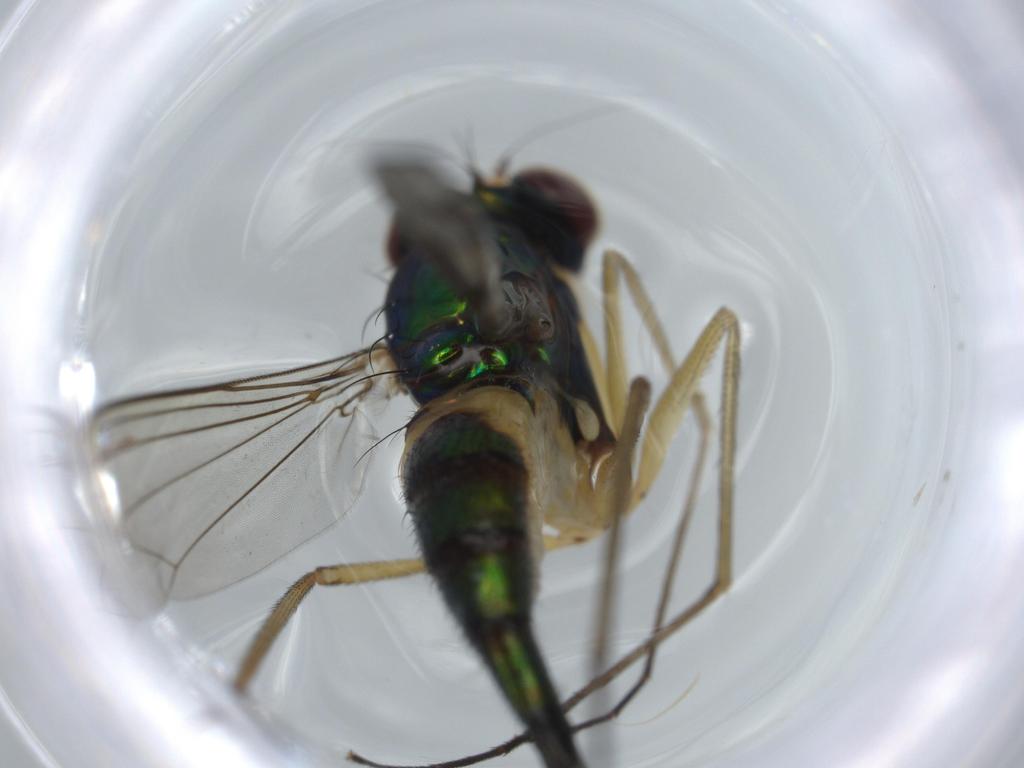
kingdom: Animalia
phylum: Arthropoda
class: Insecta
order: Diptera
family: Dolichopodidae
